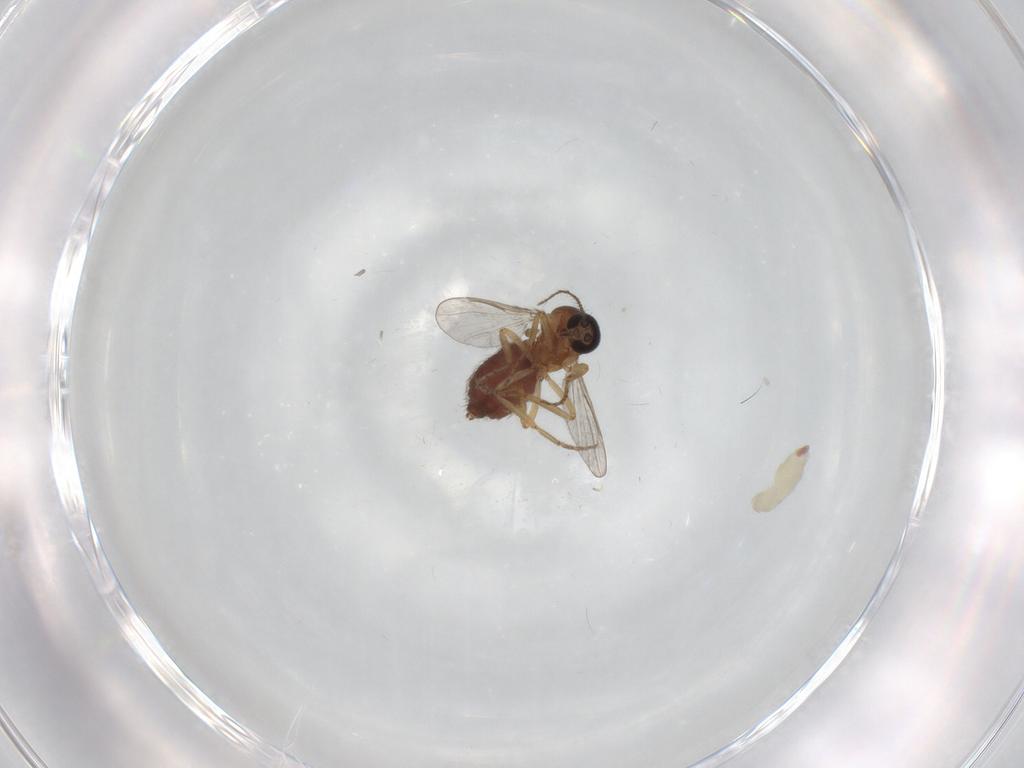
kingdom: Animalia
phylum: Arthropoda
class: Insecta
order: Diptera
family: Ceratopogonidae
